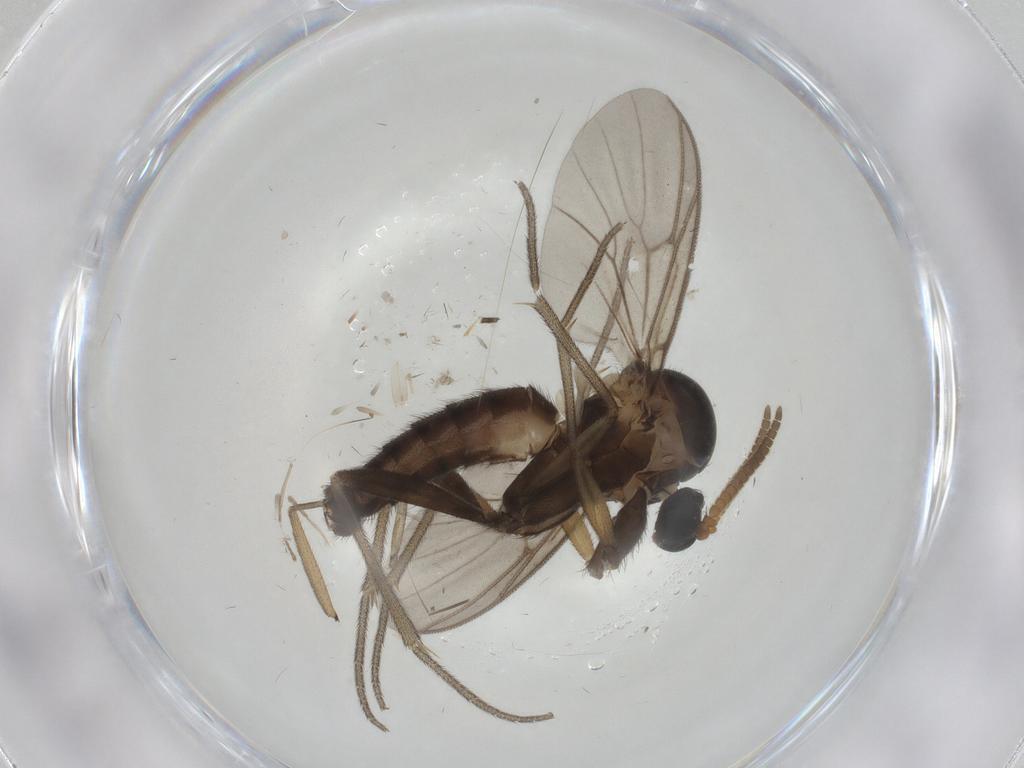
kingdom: Animalia
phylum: Arthropoda
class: Insecta
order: Diptera
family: Mycetophilidae
